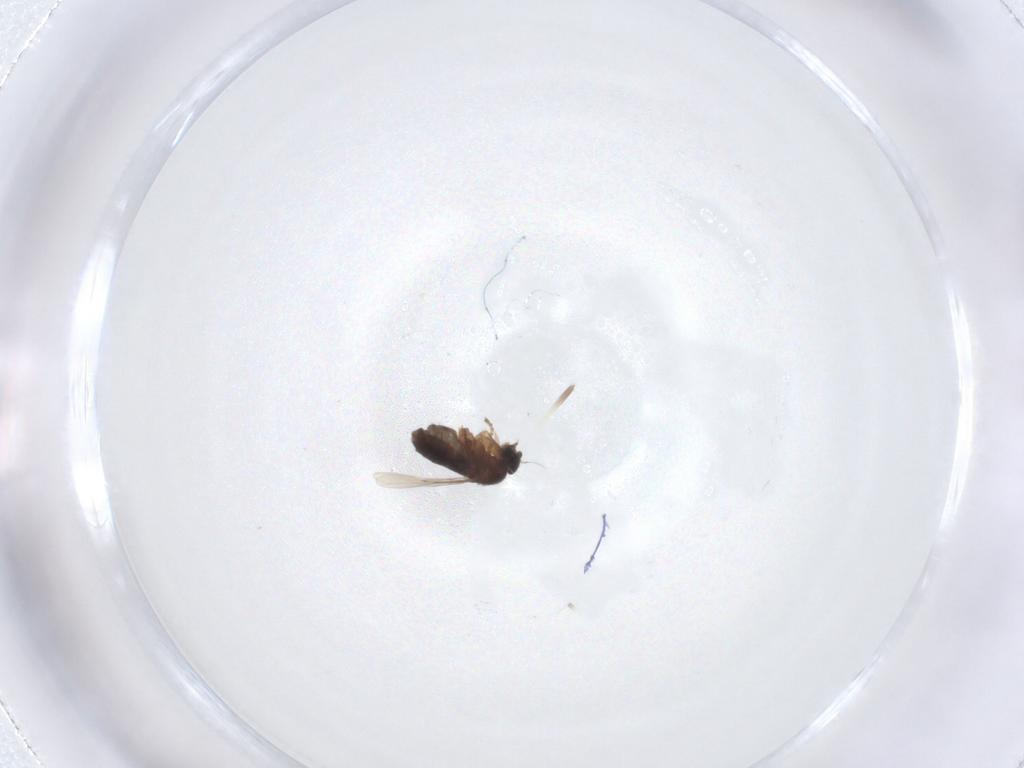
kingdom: Animalia
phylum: Arthropoda
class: Insecta
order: Diptera
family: Phoridae
